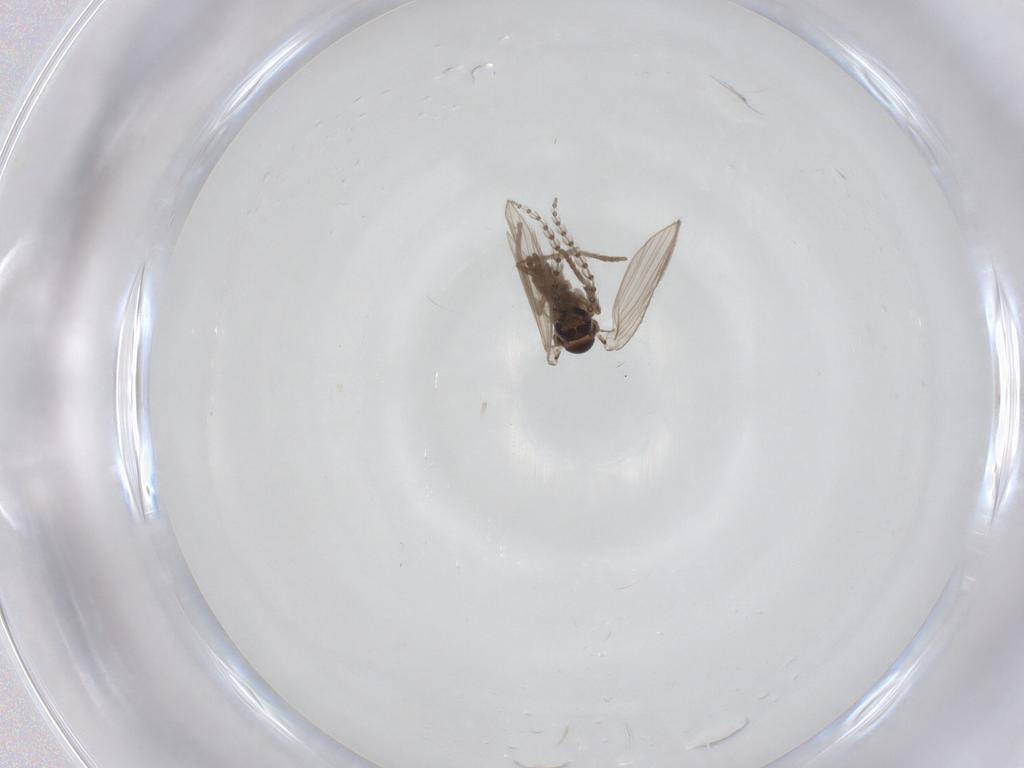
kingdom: Animalia
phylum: Arthropoda
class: Insecta
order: Diptera
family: Psychodidae
